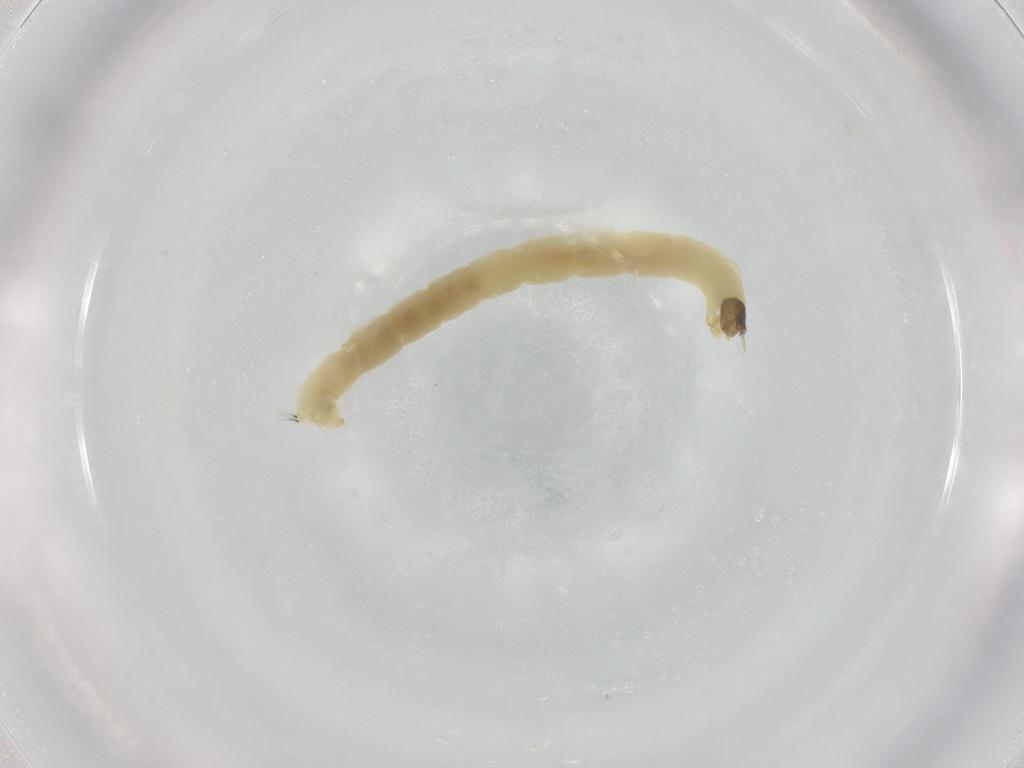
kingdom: Animalia
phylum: Arthropoda
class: Insecta
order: Diptera
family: Chironomidae
